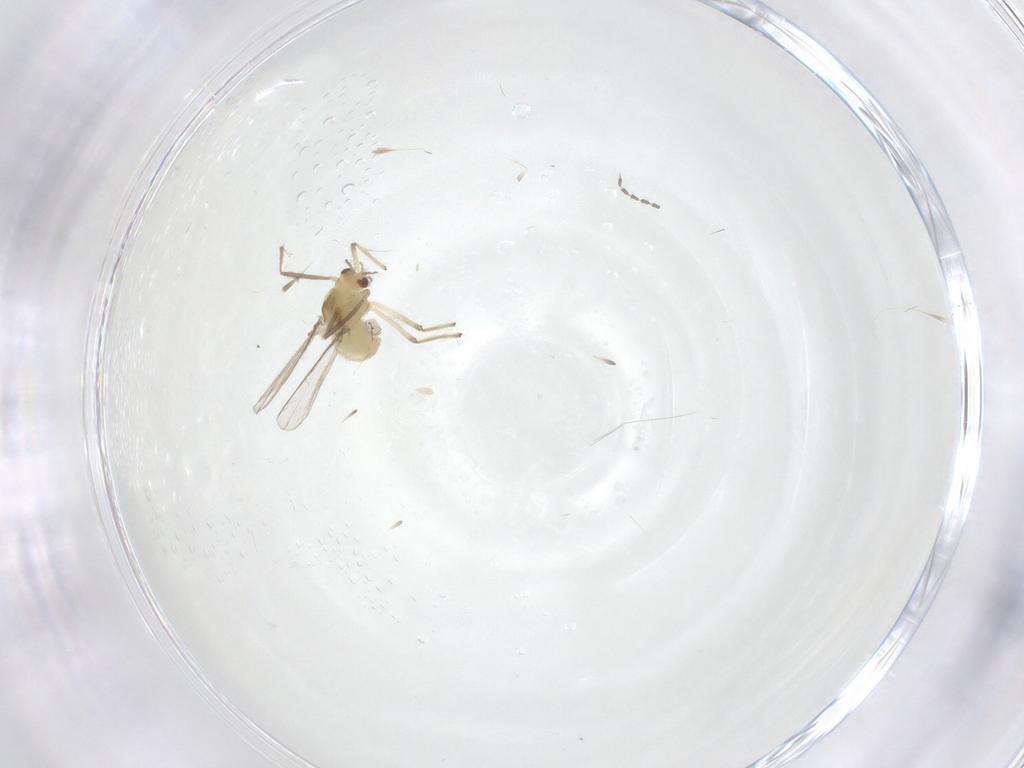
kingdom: Animalia
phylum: Arthropoda
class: Insecta
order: Diptera
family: Chironomidae
